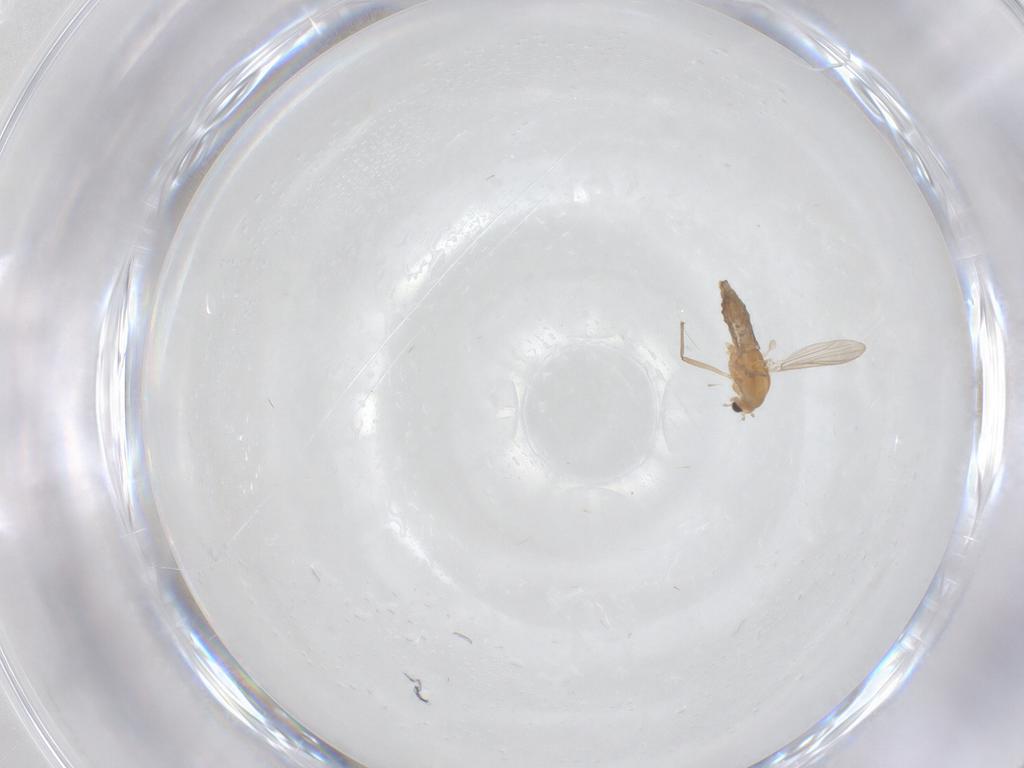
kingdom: Animalia
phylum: Arthropoda
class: Insecta
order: Diptera
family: Chironomidae
